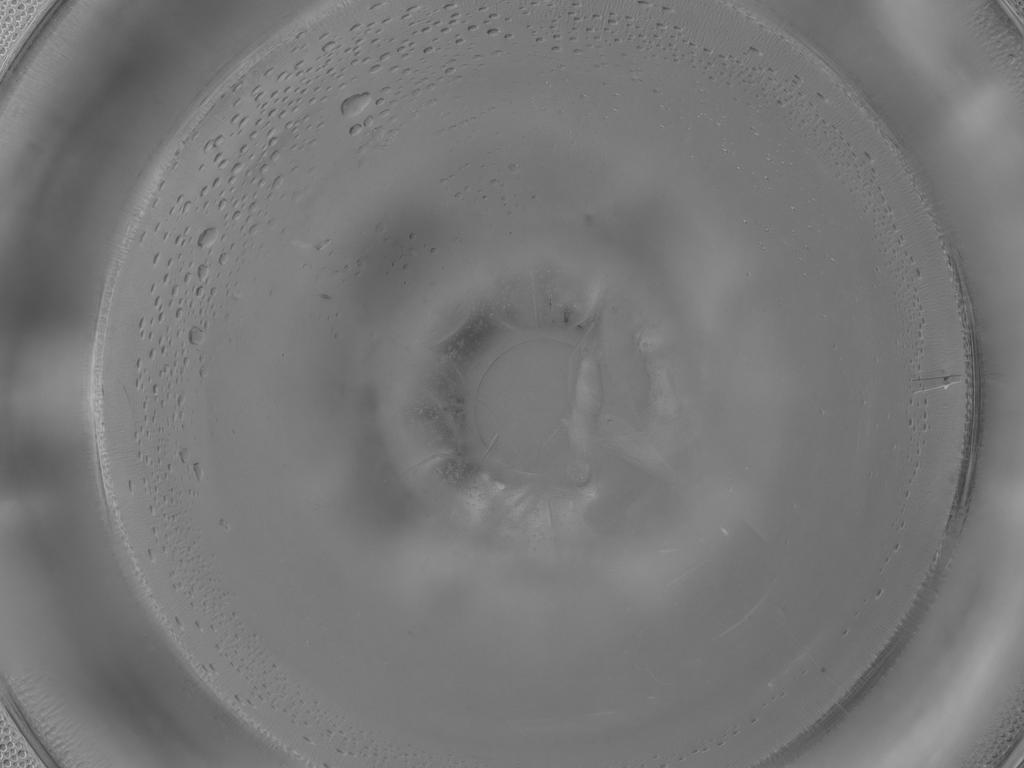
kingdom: Animalia
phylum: Arthropoda
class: Insecta
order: Diptera
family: Cecidomyiidae
